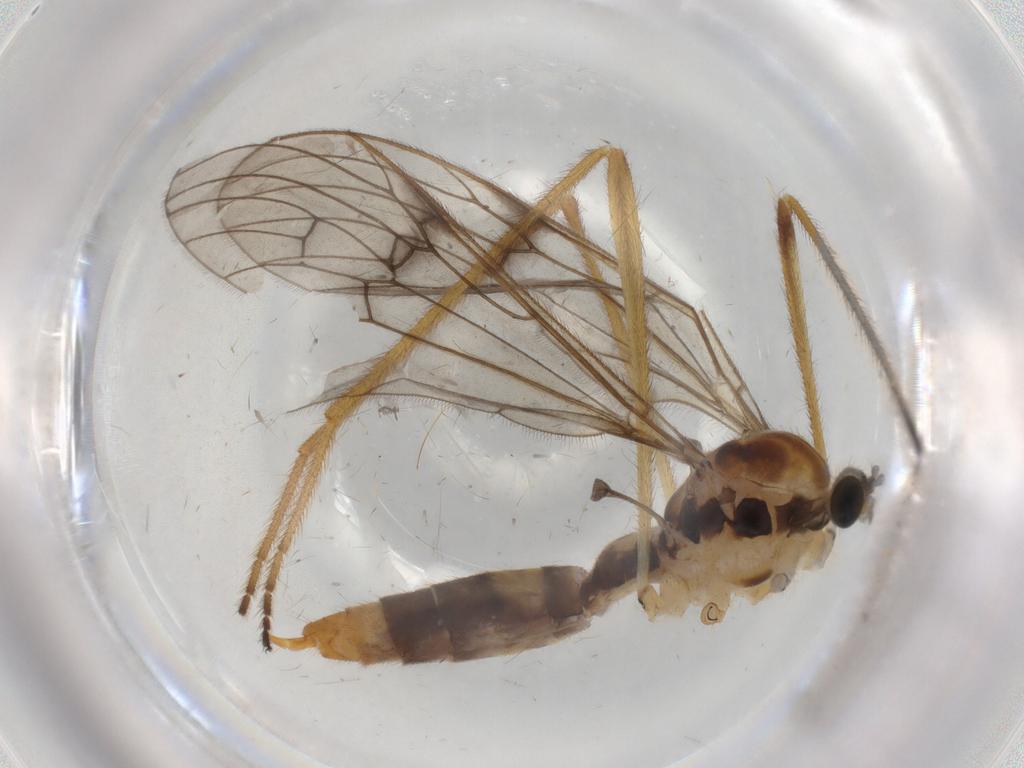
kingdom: Animalia
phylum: Arthropoda
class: Insecta
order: Diptera
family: Limoniidae
